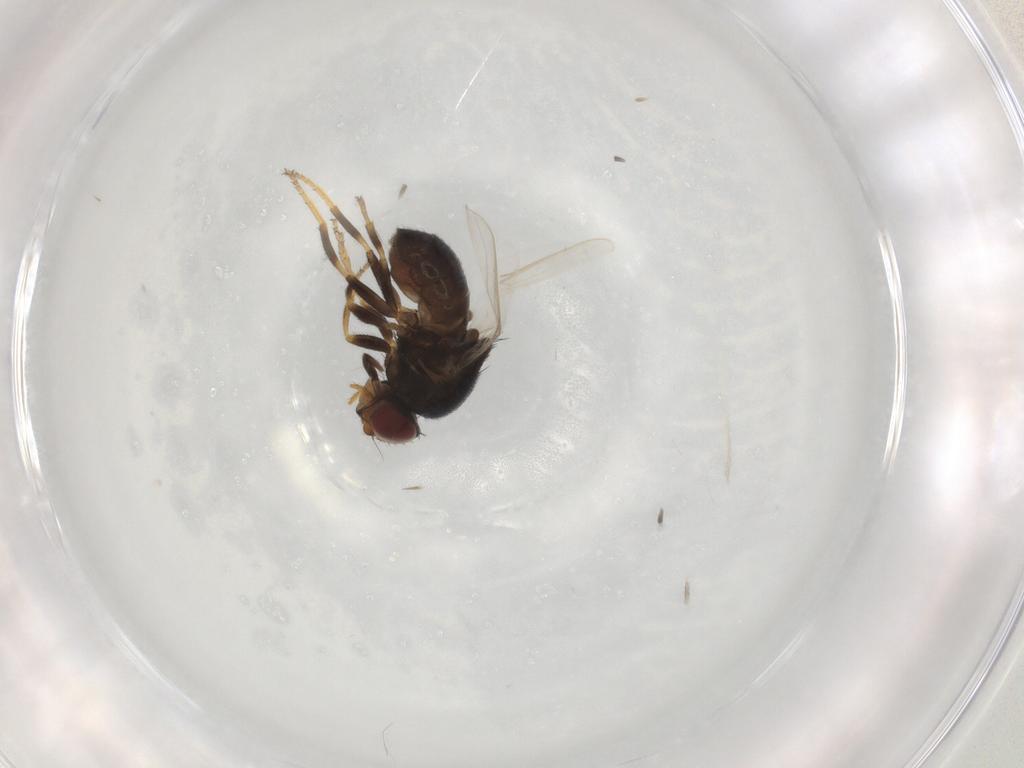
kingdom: Animalia
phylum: Arthropoda
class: Insecta
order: Diptera
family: Chloropidae
